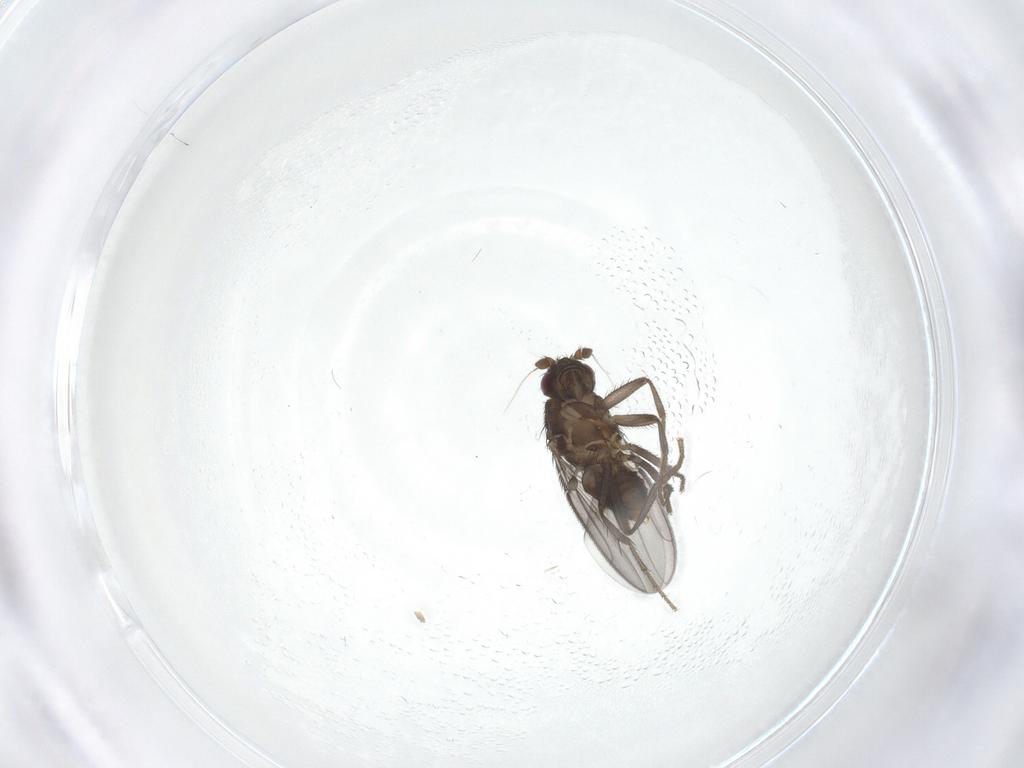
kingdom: Animalia
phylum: Arthropoda
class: Insecta
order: Diptera
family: Sphaeroceridae
